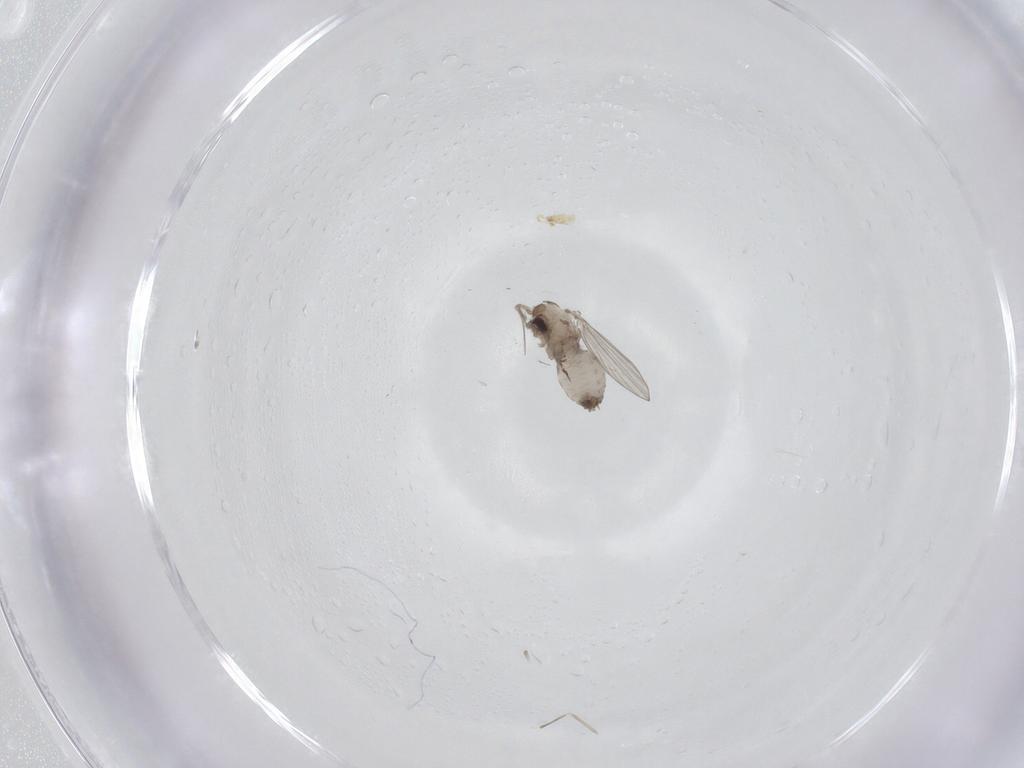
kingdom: Animalia
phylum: Arthropoda
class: Insecta
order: Diptera
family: Psychodidae
